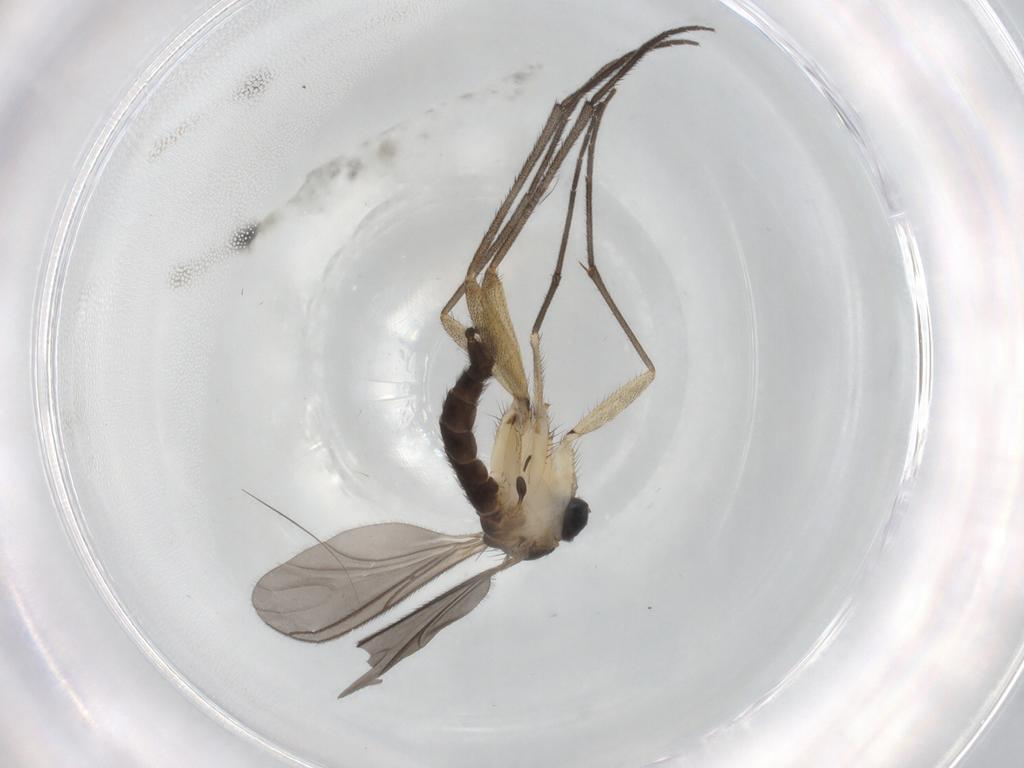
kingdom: Animalia
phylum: Arthropoda
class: Insecta
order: Diptera
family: Sciaridae
